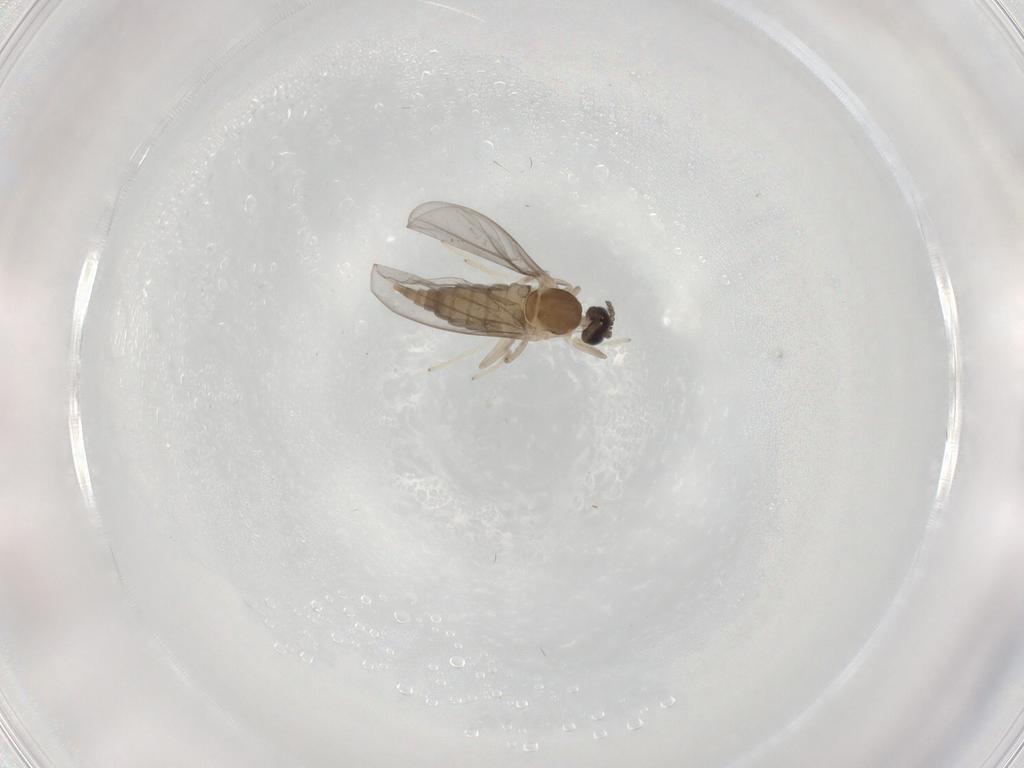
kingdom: Animalia
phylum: Arthropoda
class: Insecta
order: Diptera
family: Cecidomyiidae
